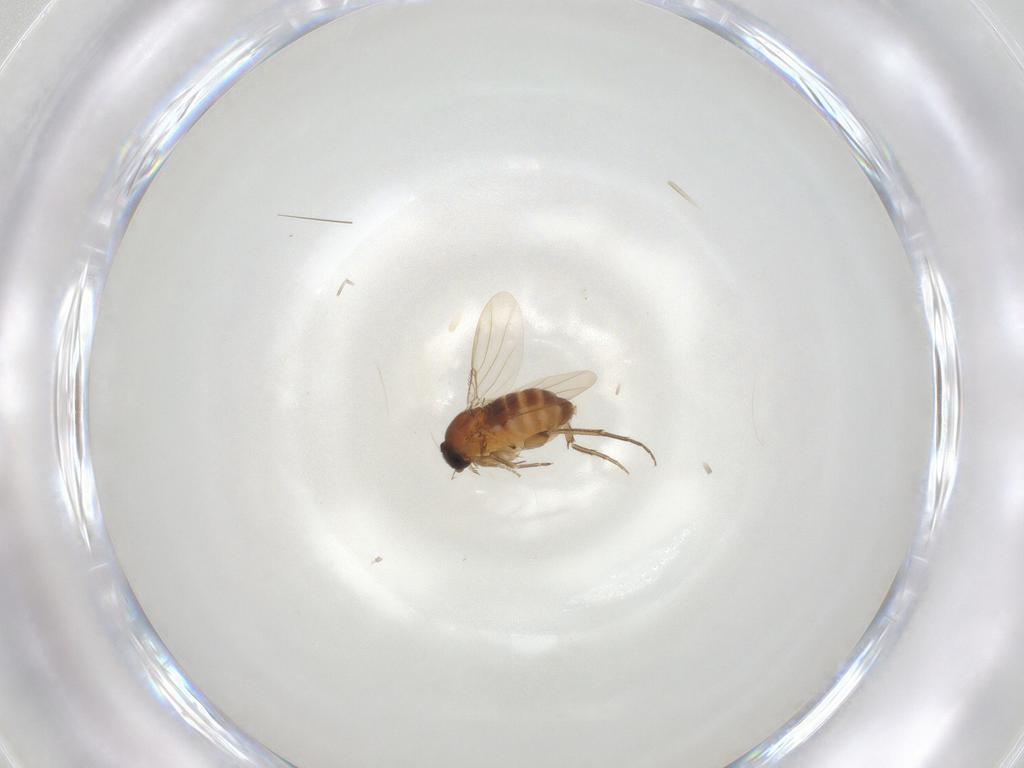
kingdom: Animalia
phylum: Arthropoda
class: Insecta
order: Diptera
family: Phoridae
